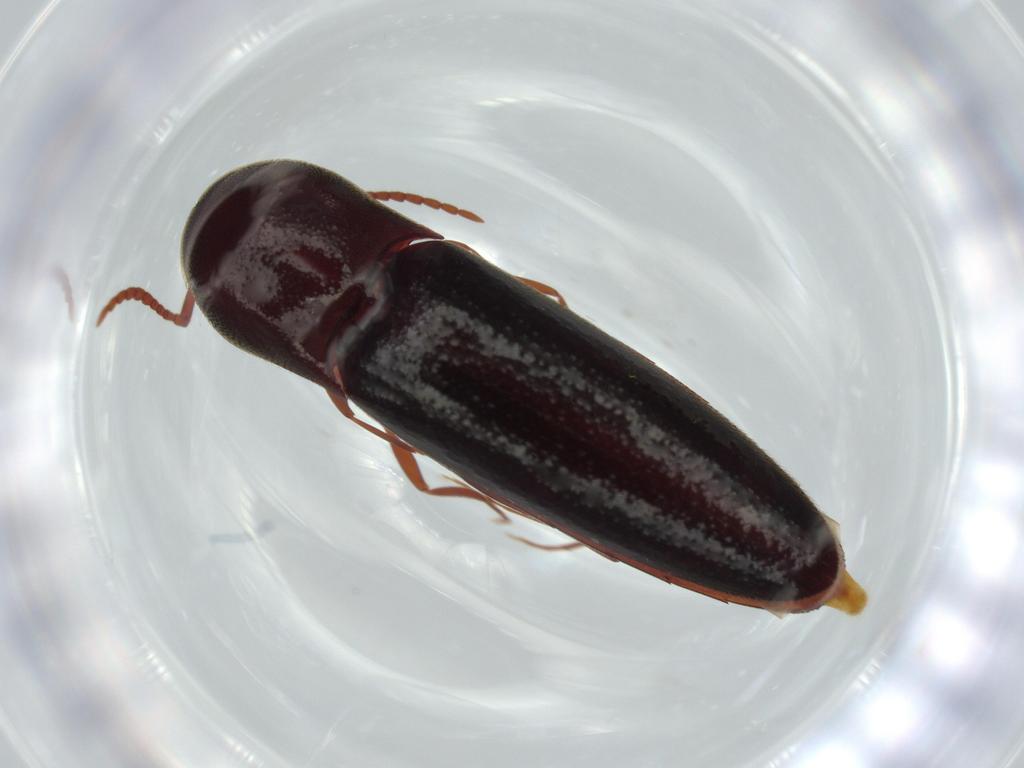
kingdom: Animalia
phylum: Arthropoda
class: Insecta
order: Coleoptera
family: Eucnemidae
